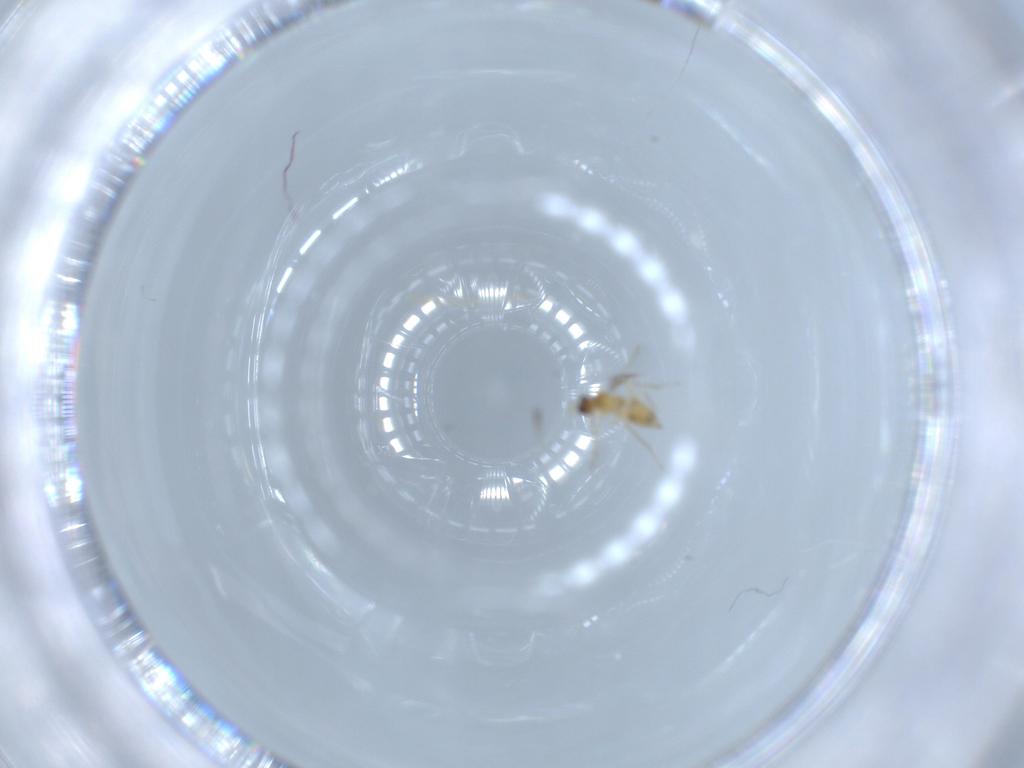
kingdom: Animalia
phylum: Arthropoda
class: Insecta
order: Hymenoptera
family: Mymaridae
